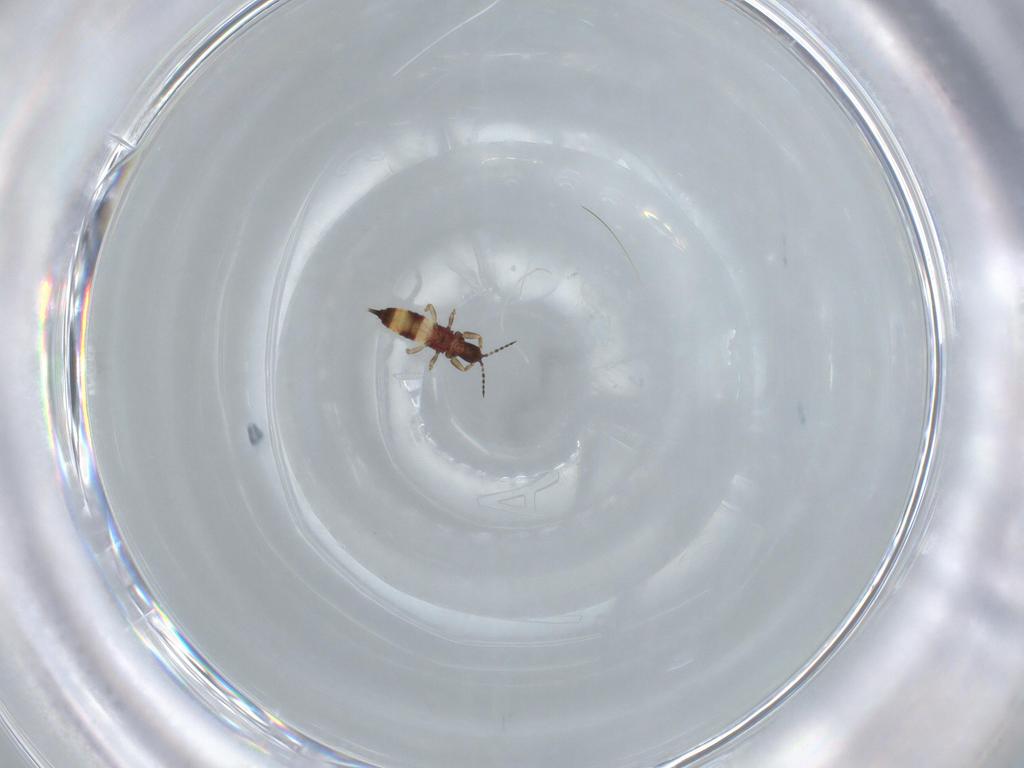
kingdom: Animalia
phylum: Arthropoda
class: Insecta
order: Thysanoptera
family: Phlaeothripidae
